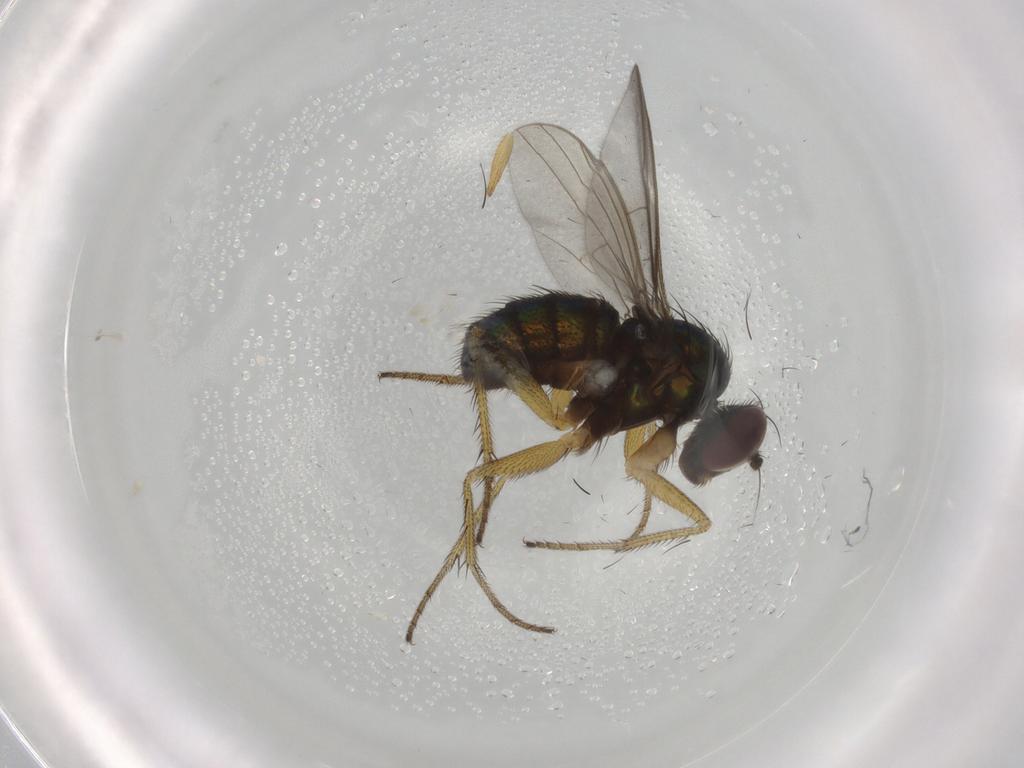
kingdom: Animalia
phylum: Arthropoda
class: Insecta
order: Diptera
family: Dolichopodidae
